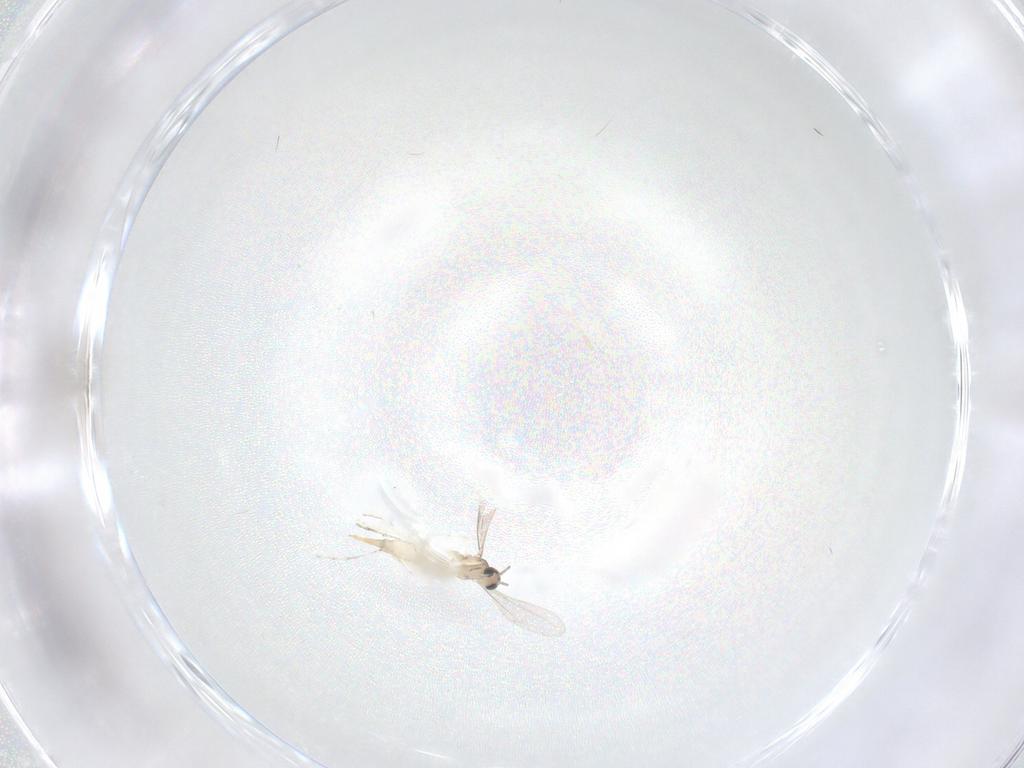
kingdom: Animalia
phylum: Arthropoda
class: Insecta
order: Diptera
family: Cecidomyiidae
